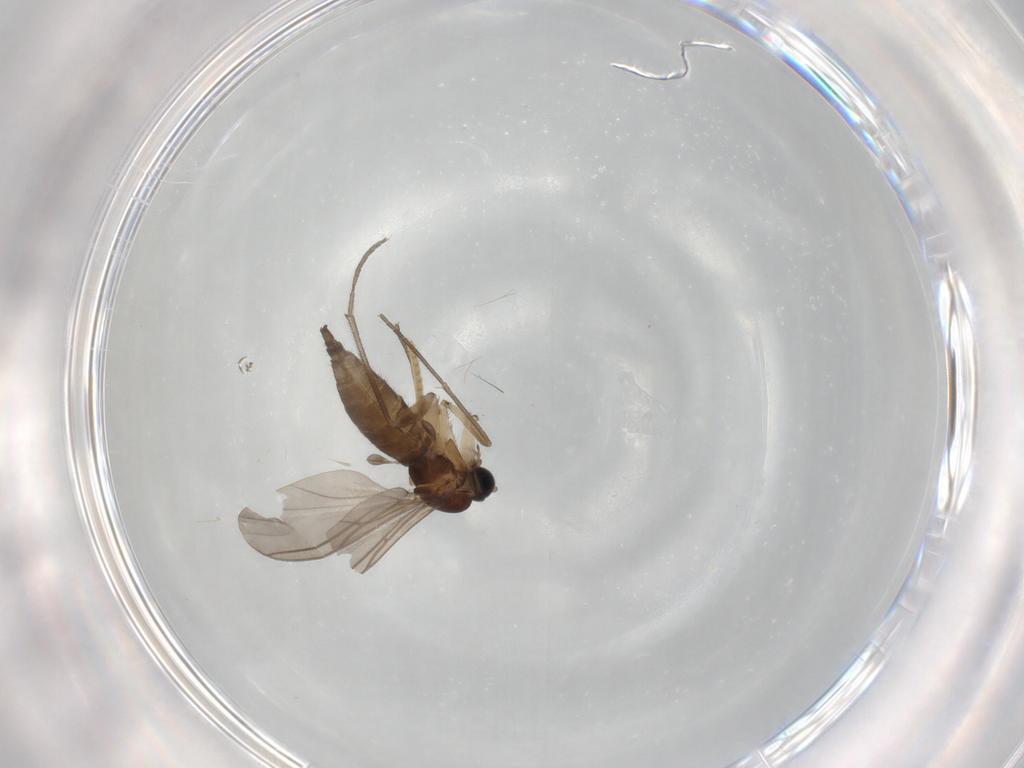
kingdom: Animalia
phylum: Arthropoda
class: Insecta
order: Diptera
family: Sciaridae
